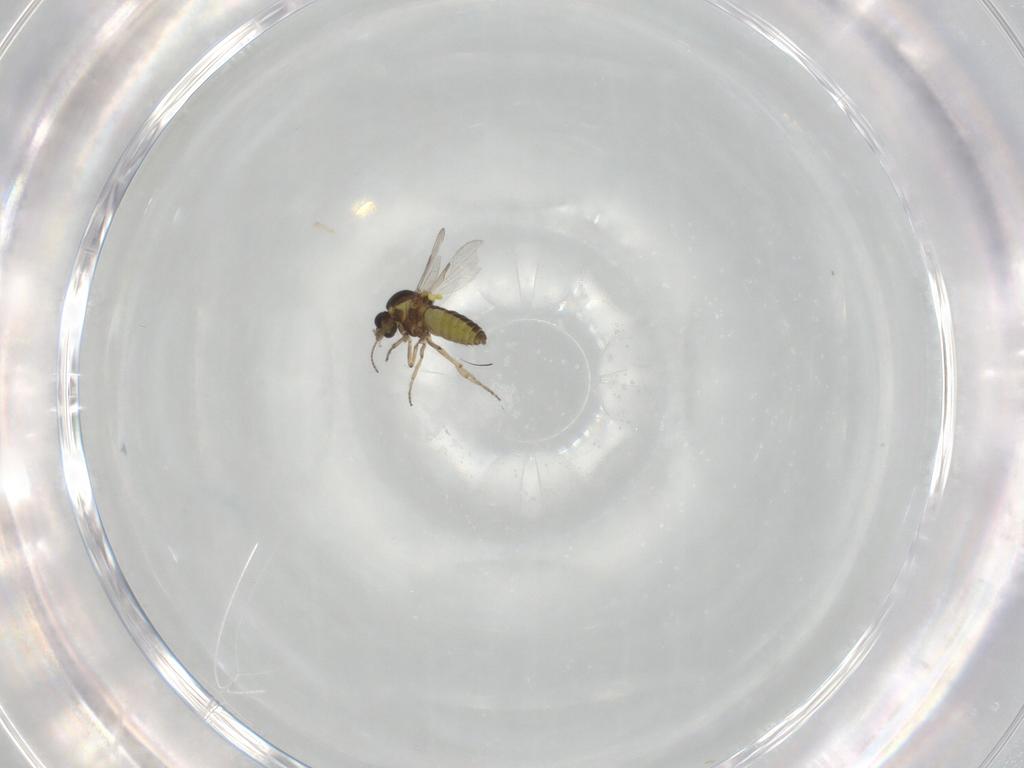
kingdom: Animalia
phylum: Arthropoda
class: Insecta
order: Diptera
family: Ceratopogonidae
